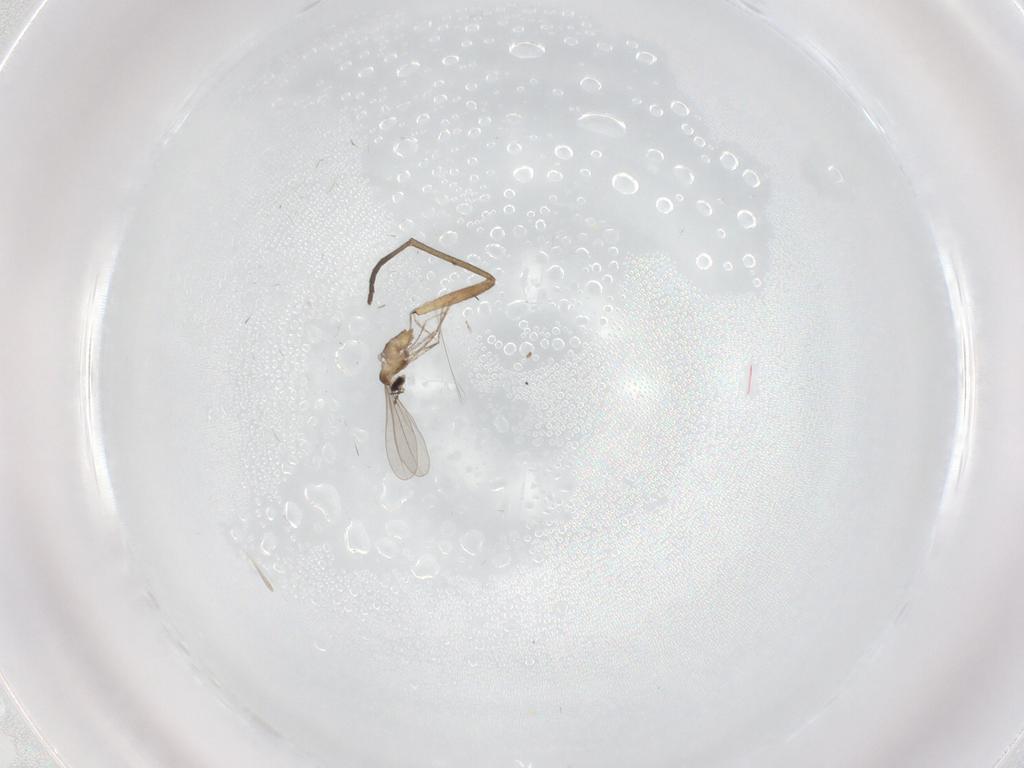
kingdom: Animalia
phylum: Arthropoda
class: Insecta
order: Diptera
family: Cecidomyiidae
